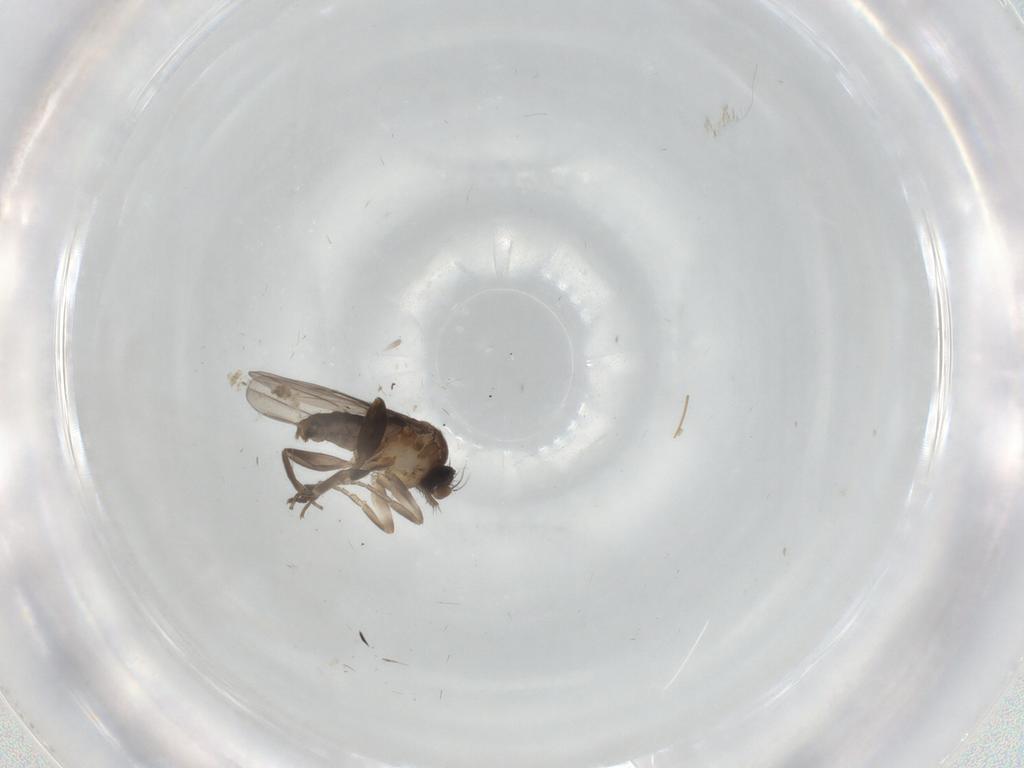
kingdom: Animalia
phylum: Arthropoda
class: Insecta
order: Diptera
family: Phoridae
